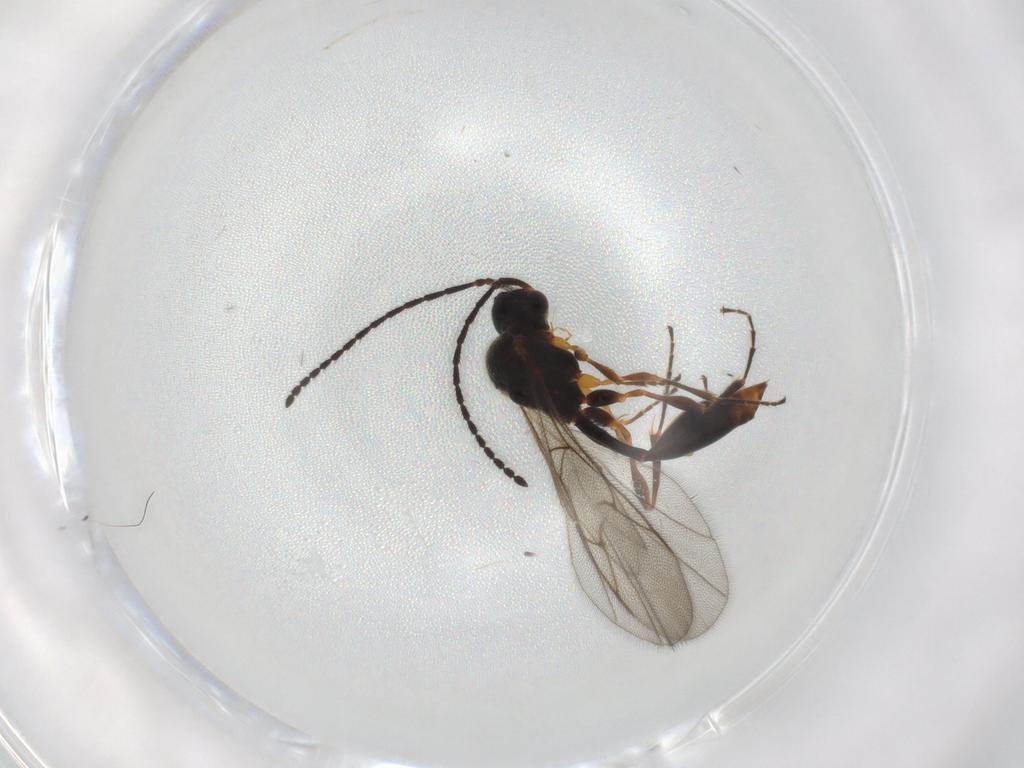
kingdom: Animalia
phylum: Arthropoda
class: Insecta
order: Hymenoptera
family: Diapriidae
